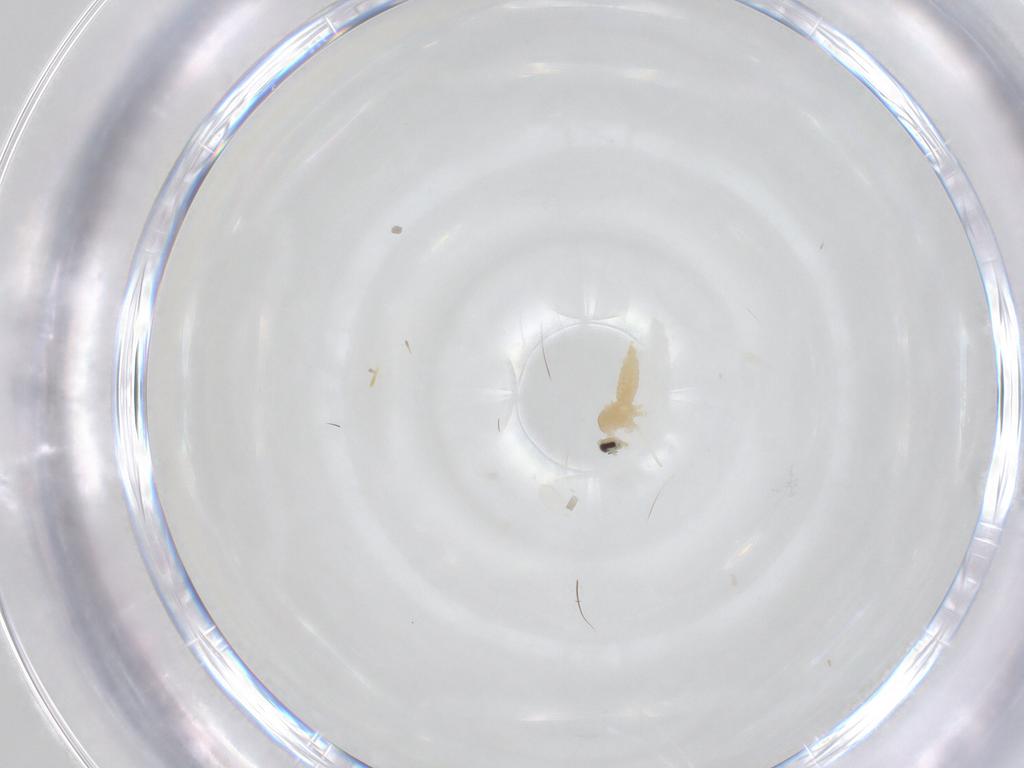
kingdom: Animalia
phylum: Arthropoda
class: Insecta
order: Diptera
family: Cecidomyiidae
